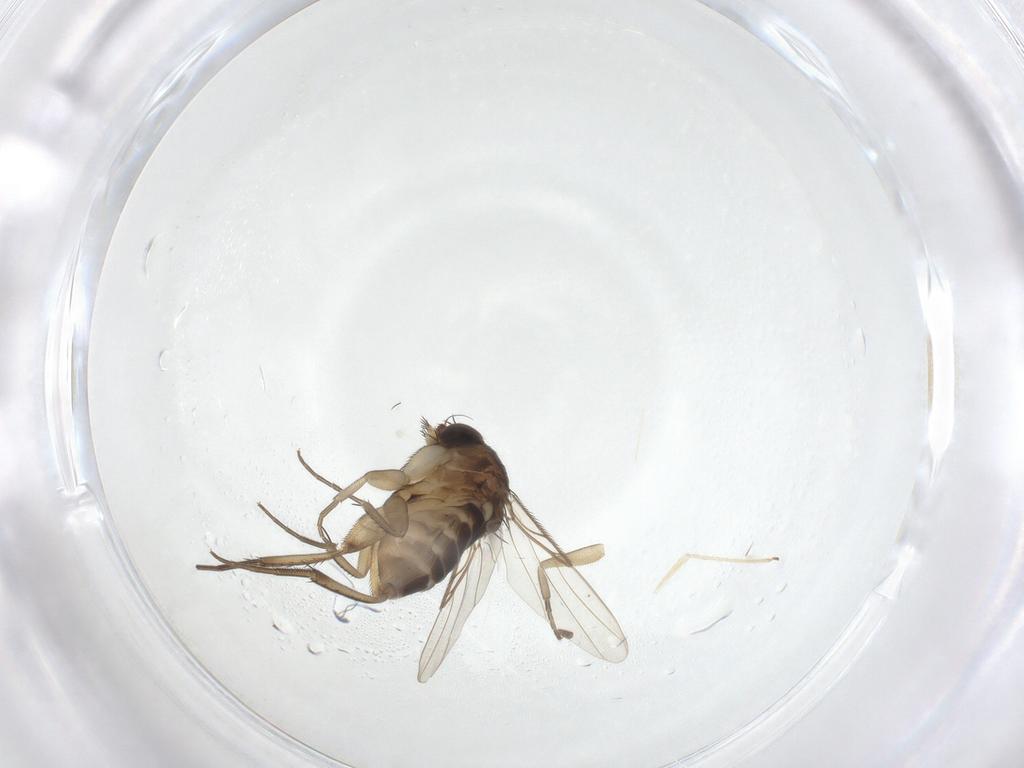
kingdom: Animalia
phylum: Arthropoda
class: Insecta
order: Diptera
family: Phoridae
